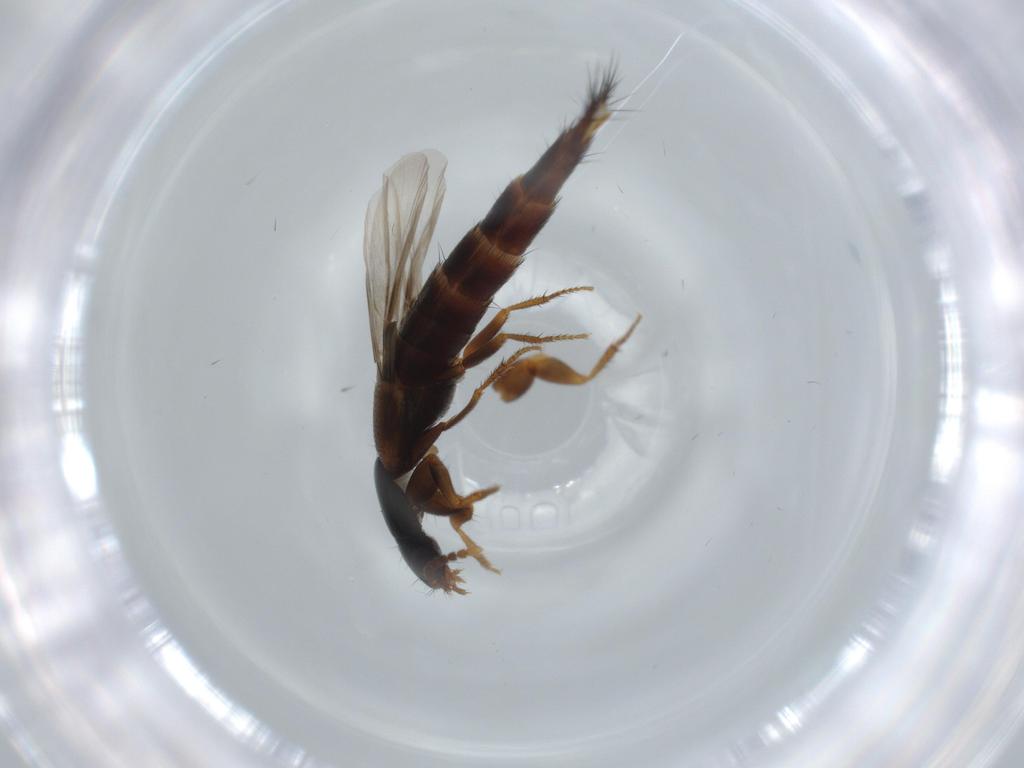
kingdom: Animalia
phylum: Arthropoda
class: Insecta
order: Coleoptera
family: Staphylinidae
